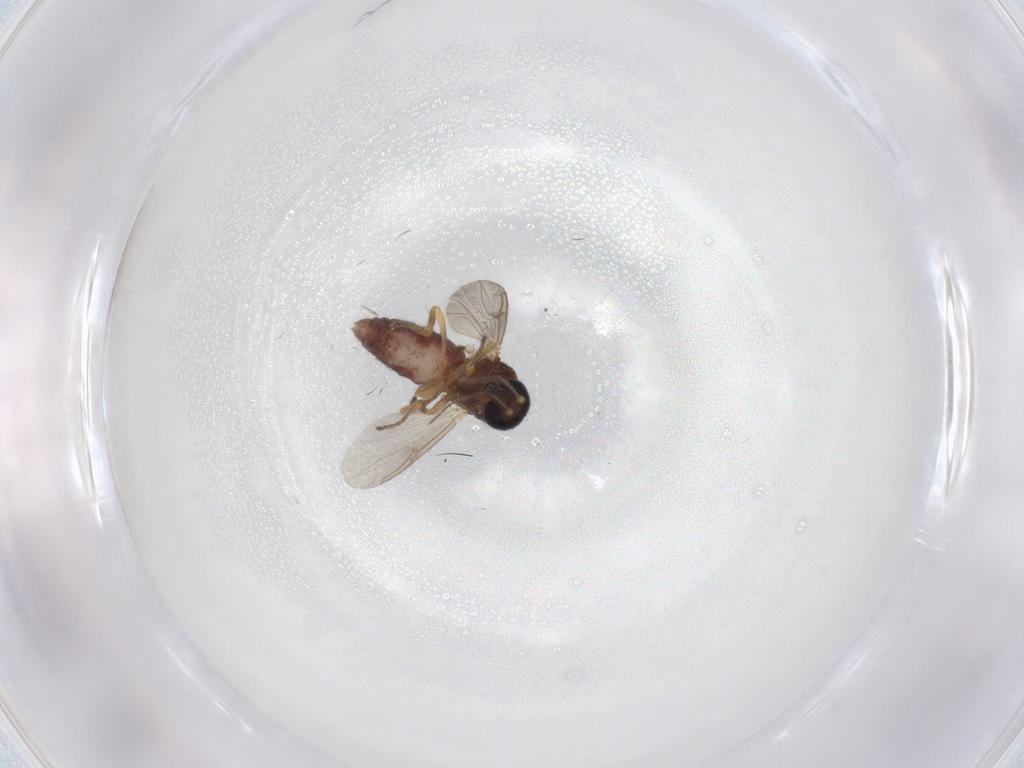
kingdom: Animalia
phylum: Arthropoda
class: Insecta
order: Diptera
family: Ceratopogonidae
